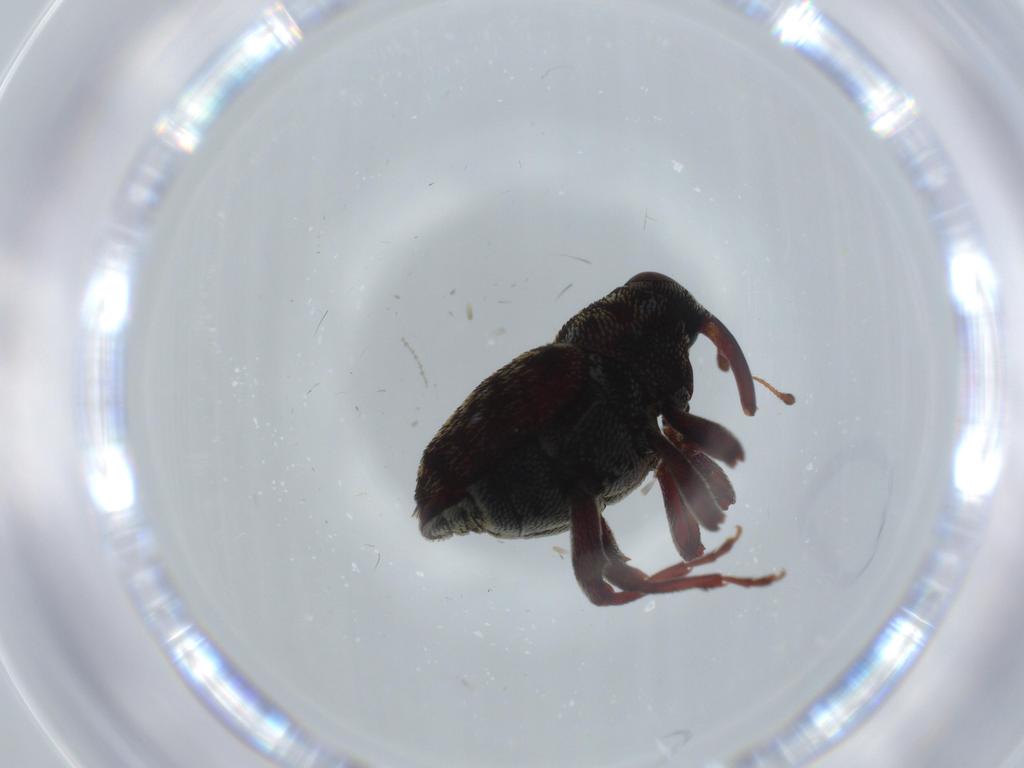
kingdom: Animalia
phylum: Arthropoda
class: Insecta
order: Coleoptera
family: Curculionidae
